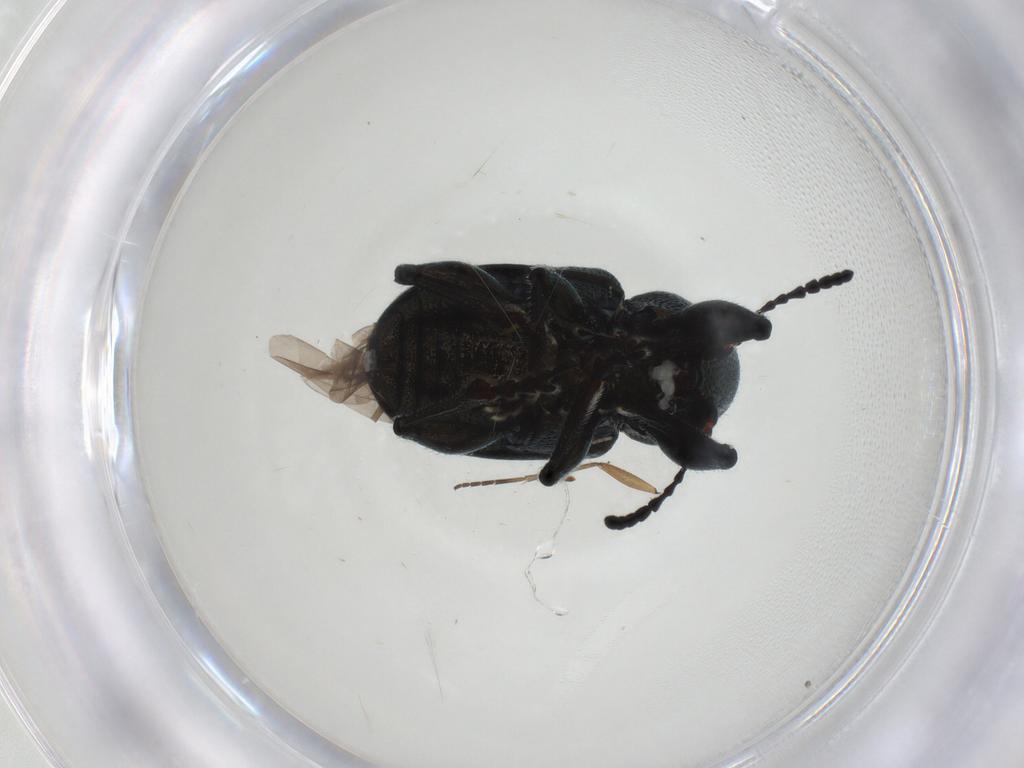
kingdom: Animalia
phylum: Arthropoda
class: Insecta
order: Coleoptera
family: Chrysomelidae
